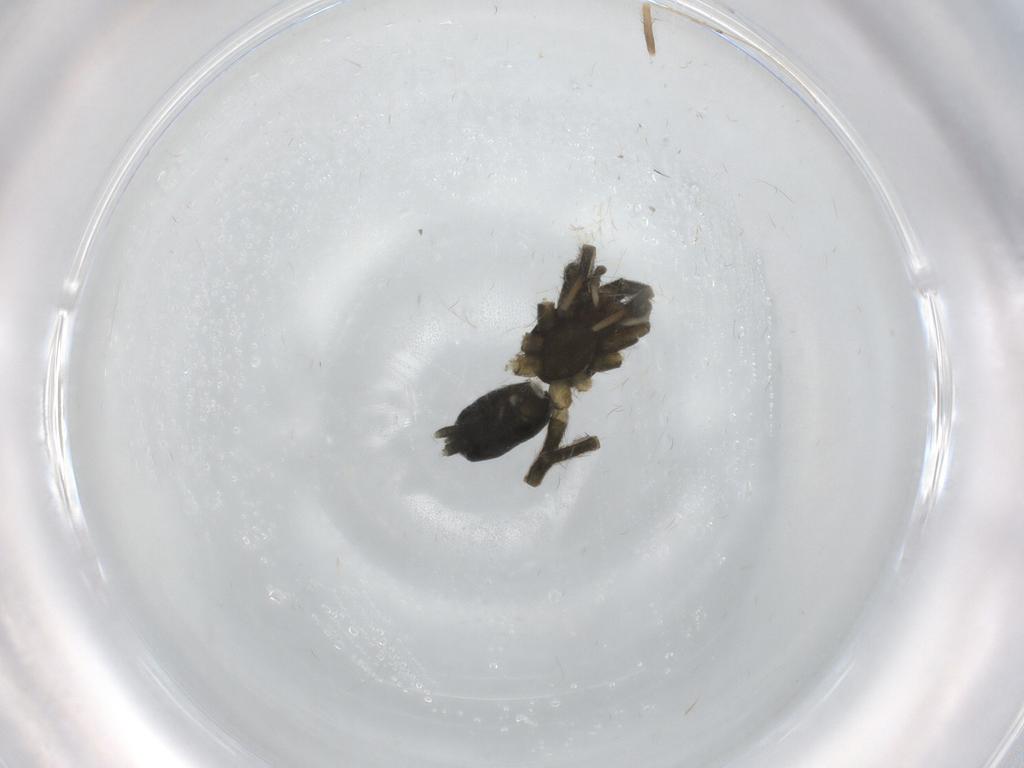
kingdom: Animalia
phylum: Arthropoda
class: Arachnida
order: Araneae
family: Gnaphosidae
